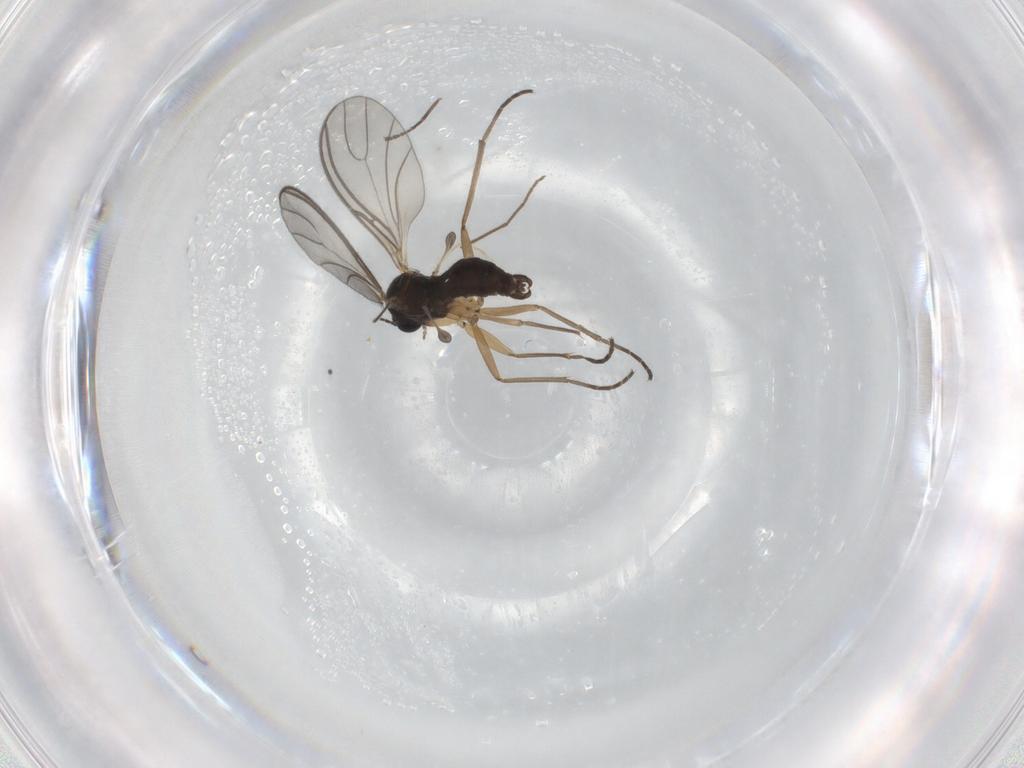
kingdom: Animalia
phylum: Arthropoda
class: Insecta
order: Diptera
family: Sciaridae
